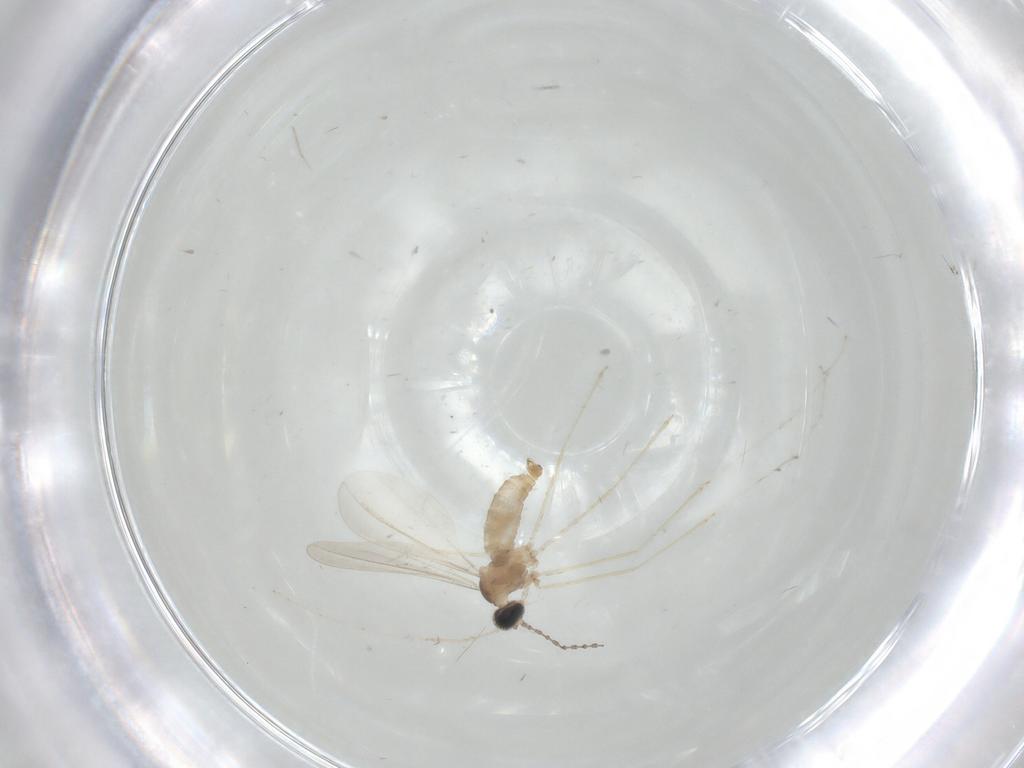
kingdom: Animalia
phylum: Arthropoda
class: Insecta
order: Diptera
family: Cecidomyiidae
